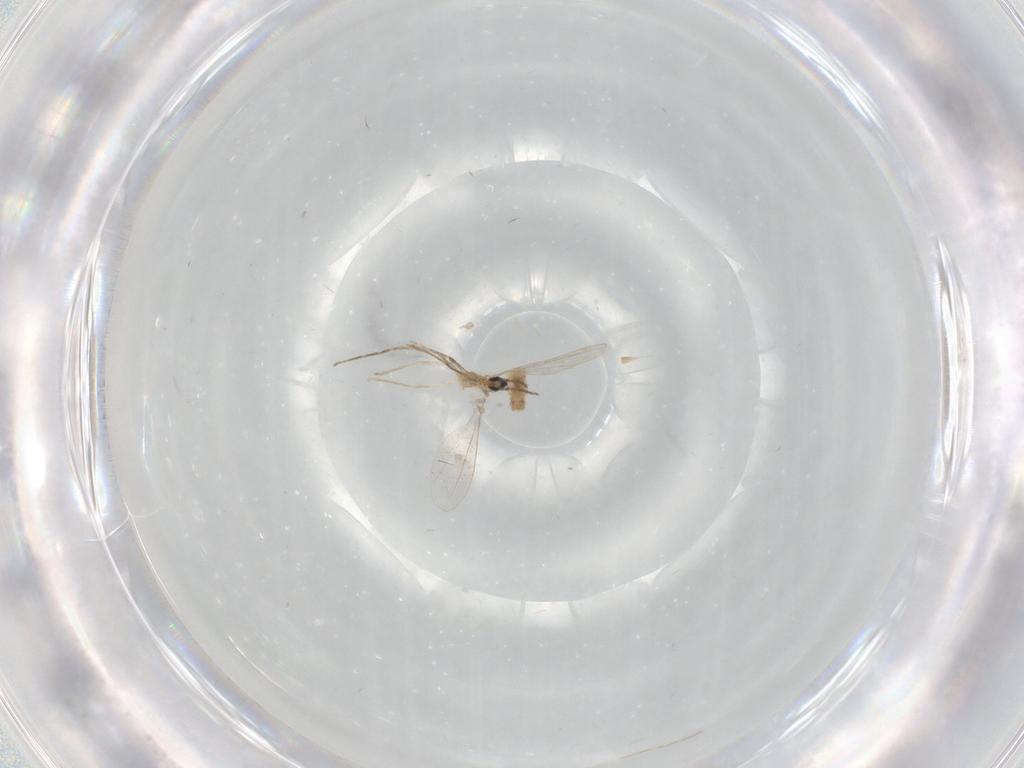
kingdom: Animalia
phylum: Arthropoda
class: Insecta
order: Diptera
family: Cecidomyiidae
